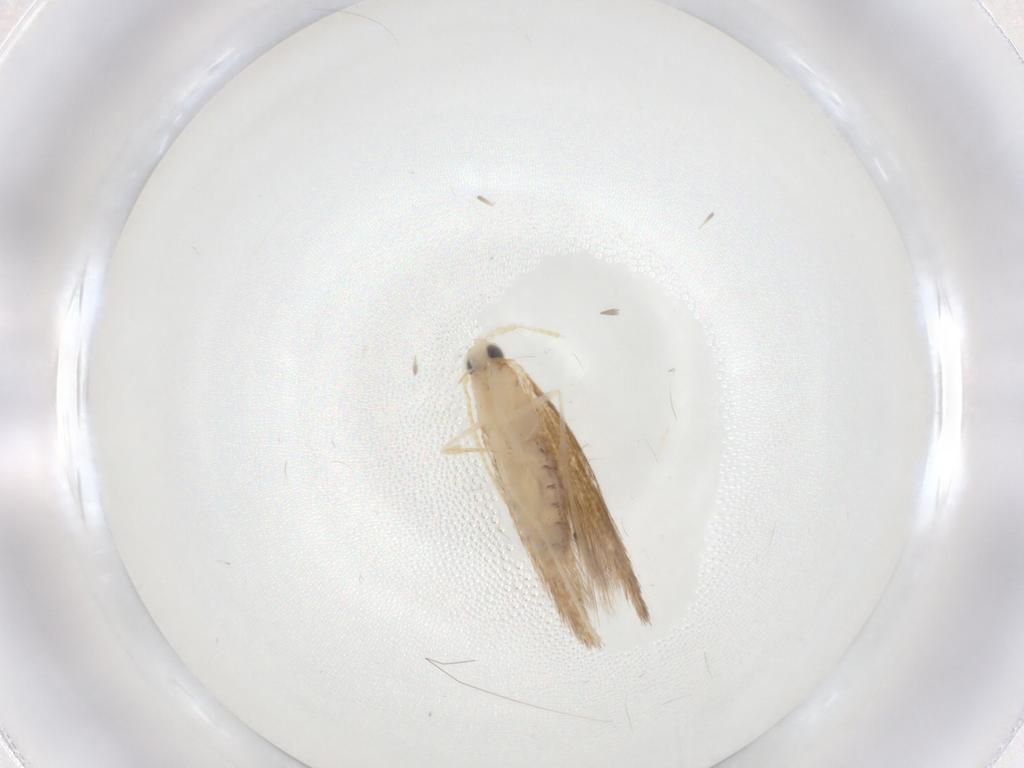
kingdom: Animalia
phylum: Arthropoda
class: Insecta
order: Lepidoptera
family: Lyonetiidae
